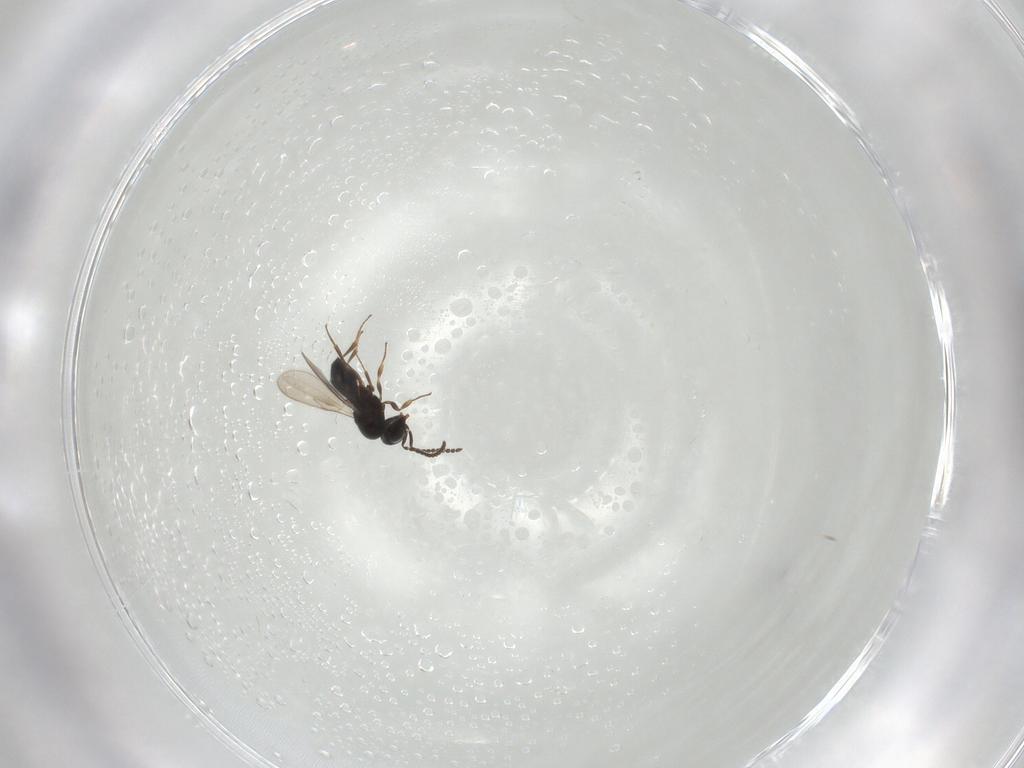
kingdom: Animalia
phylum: Arthropoda
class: Insecta
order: Hymenoptera
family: Scelionidae
